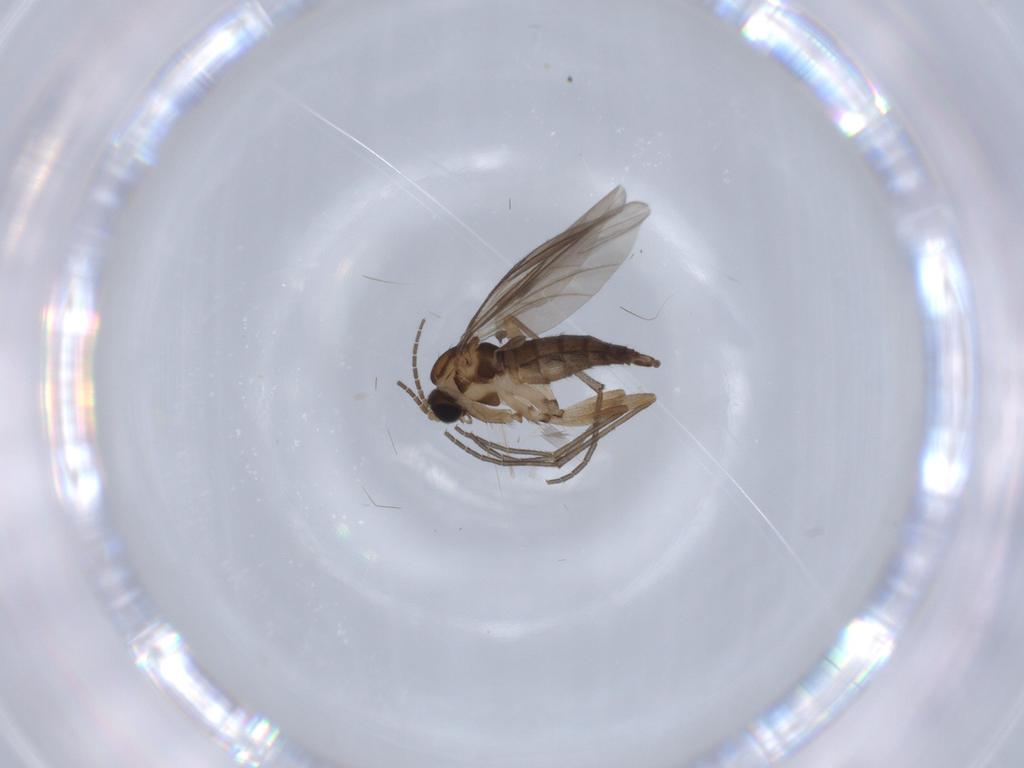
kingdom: Animalia
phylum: Arthropoda
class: Insecta
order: Diptera
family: Sciaridae
